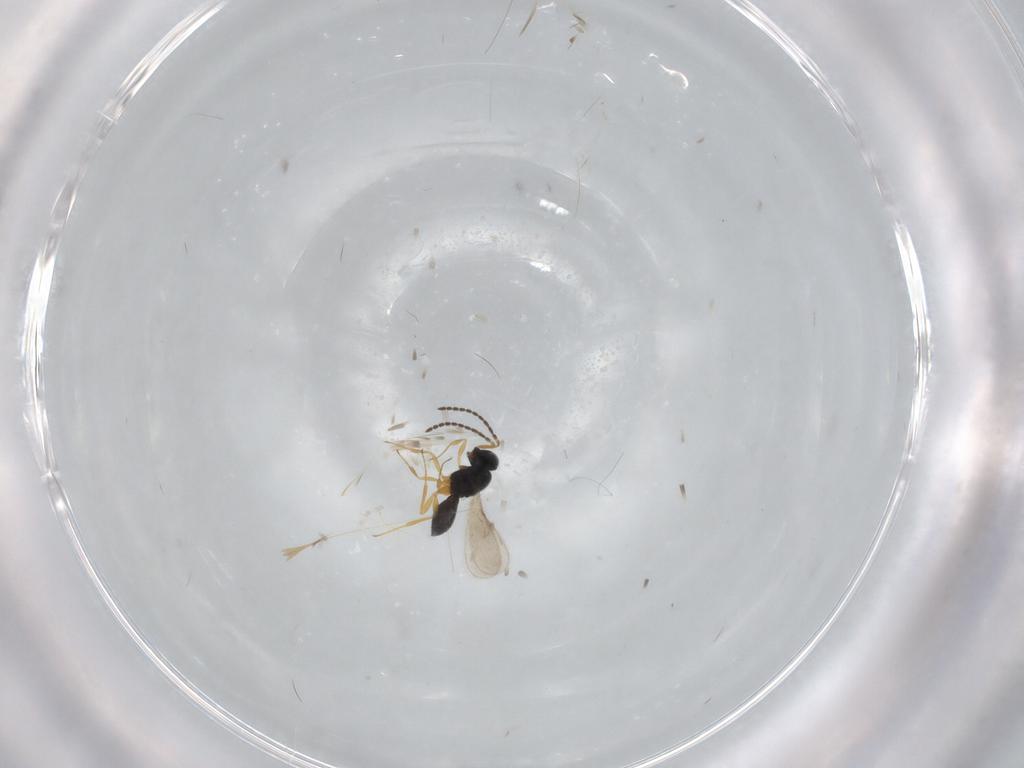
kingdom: Animalia
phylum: Arthropoda
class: Insecta
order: Hymenoptera
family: Scelionidae
